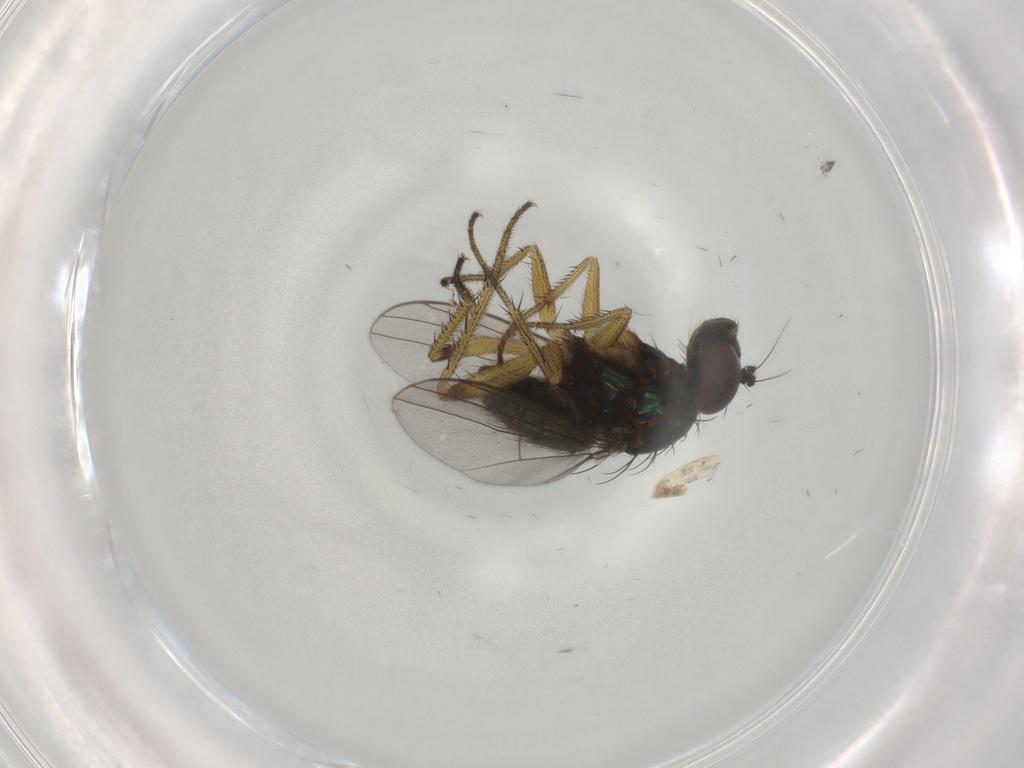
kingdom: Animalia
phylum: Arthropoda
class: Insecta
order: Diptera
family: Dolichopodidae
